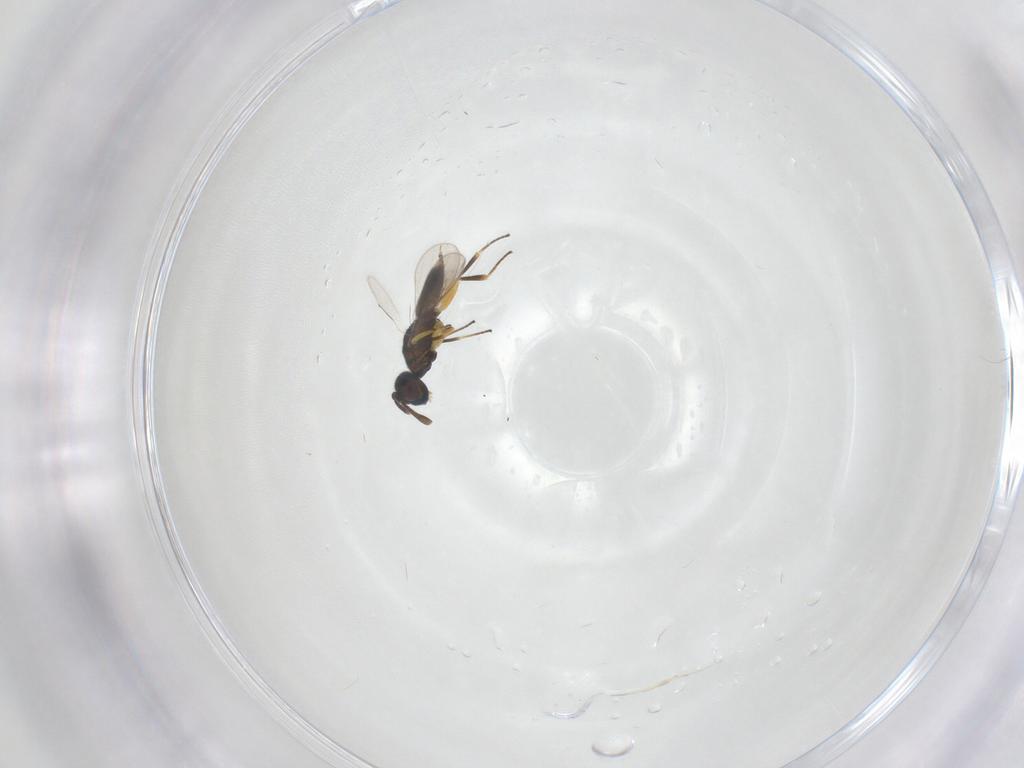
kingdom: Animalia
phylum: Arthropoda
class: Insecta
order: Hymenoptera
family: Eupelmidae
